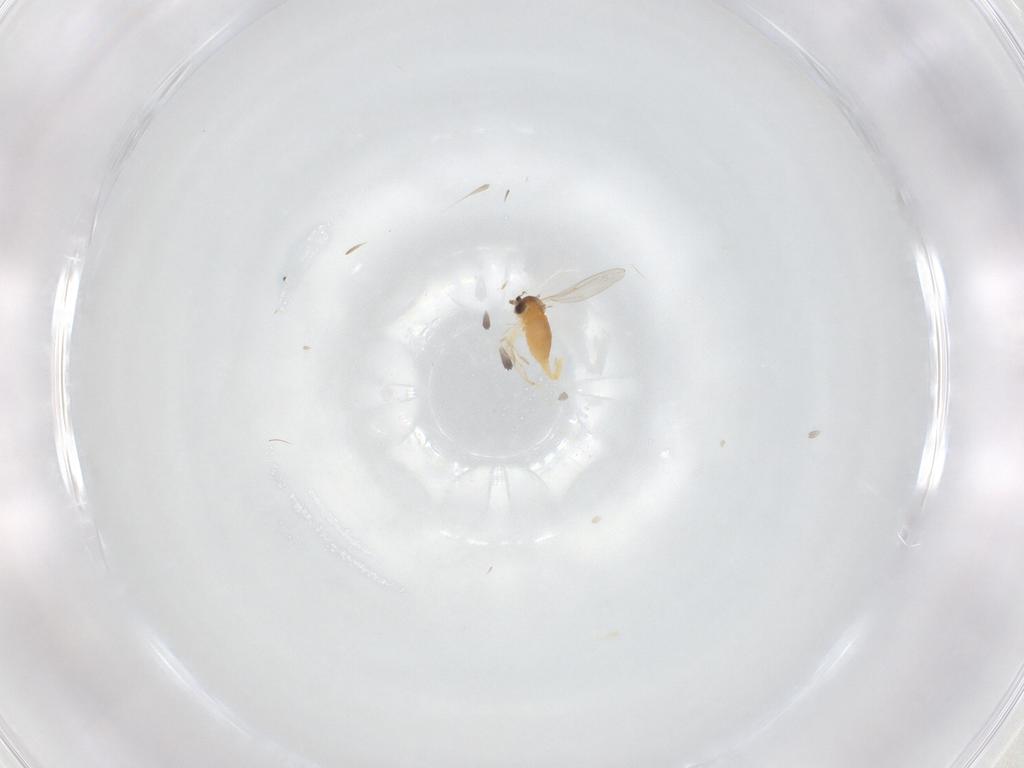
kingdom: Animalia
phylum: Arthropoda
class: Insecta
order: Diptera
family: Cecidomyiidae
